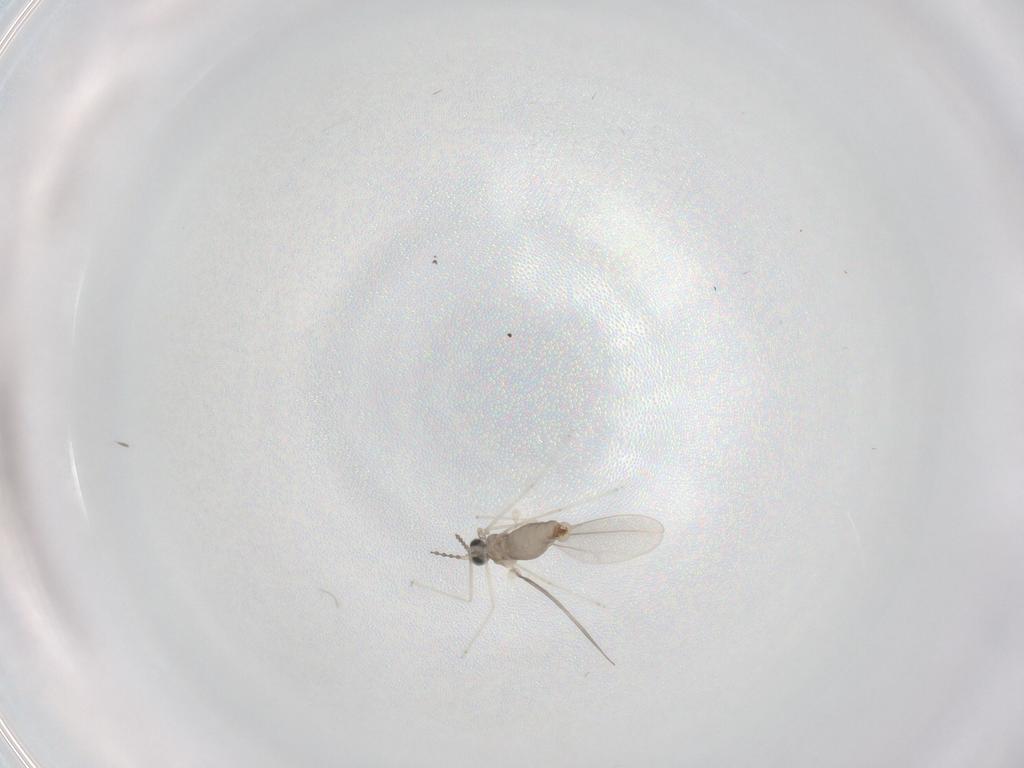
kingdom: Animalia
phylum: Arthropoda
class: Insecta
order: Diptera
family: Cecidomyiidae
